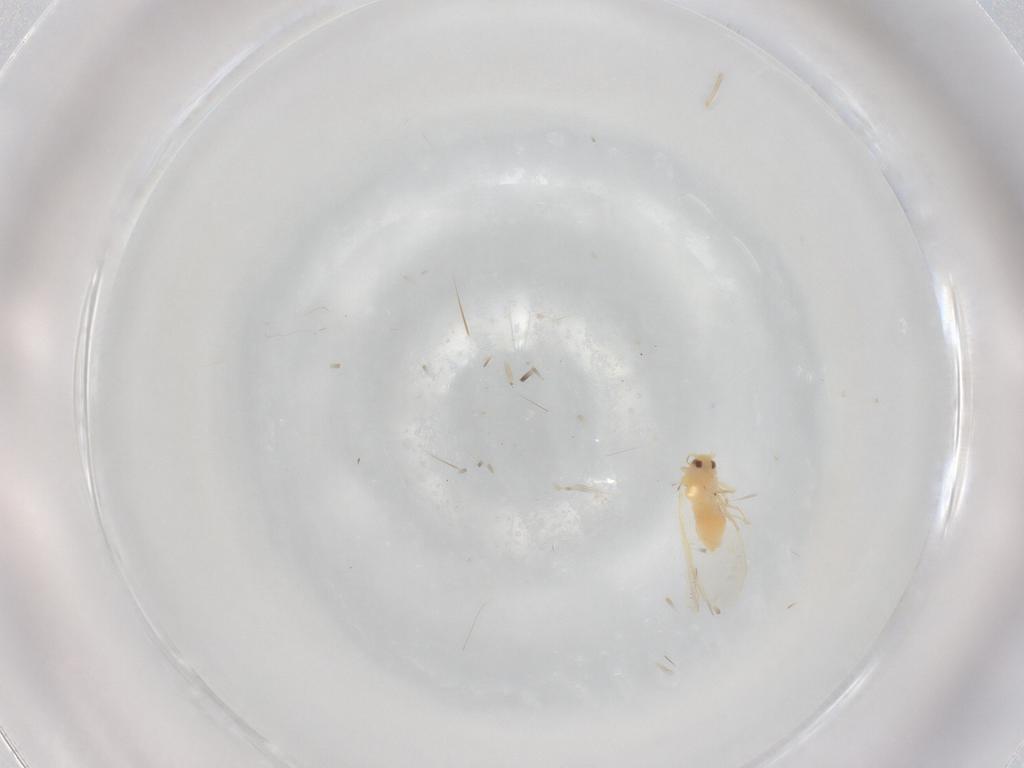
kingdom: Animalia
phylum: Arthropoda
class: Insecta
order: Hemiptera
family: Aleyrodidae
